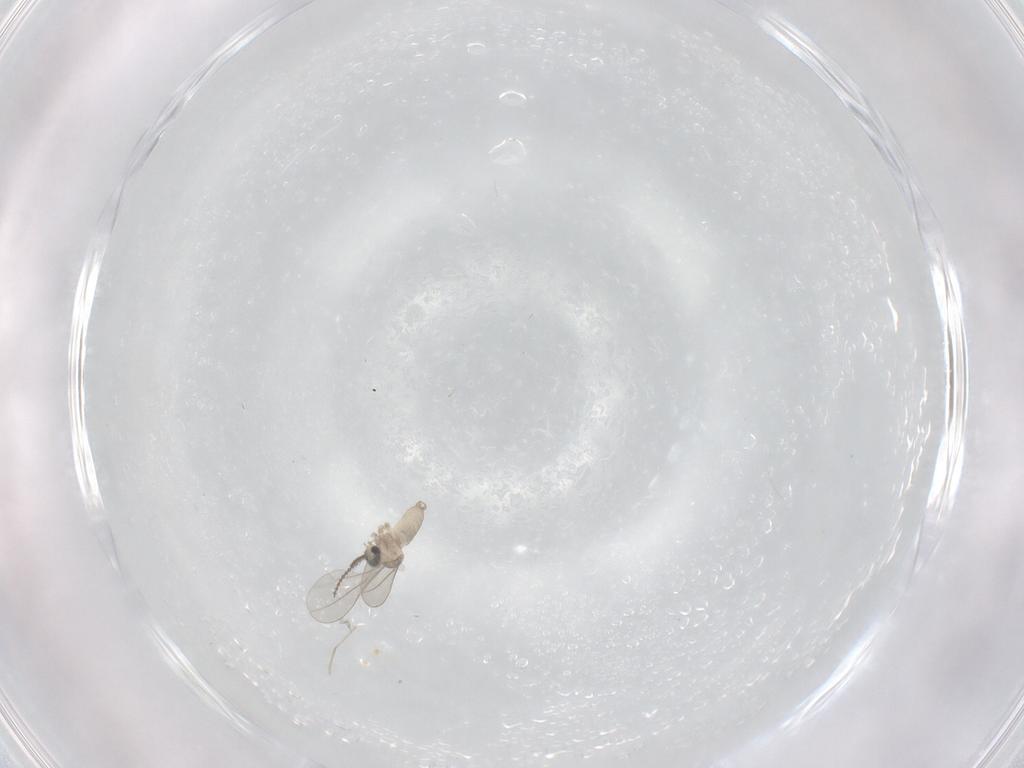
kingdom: Animalia
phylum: Arthropoda
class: Insecta
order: Diptera
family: Cecidomyiidae
